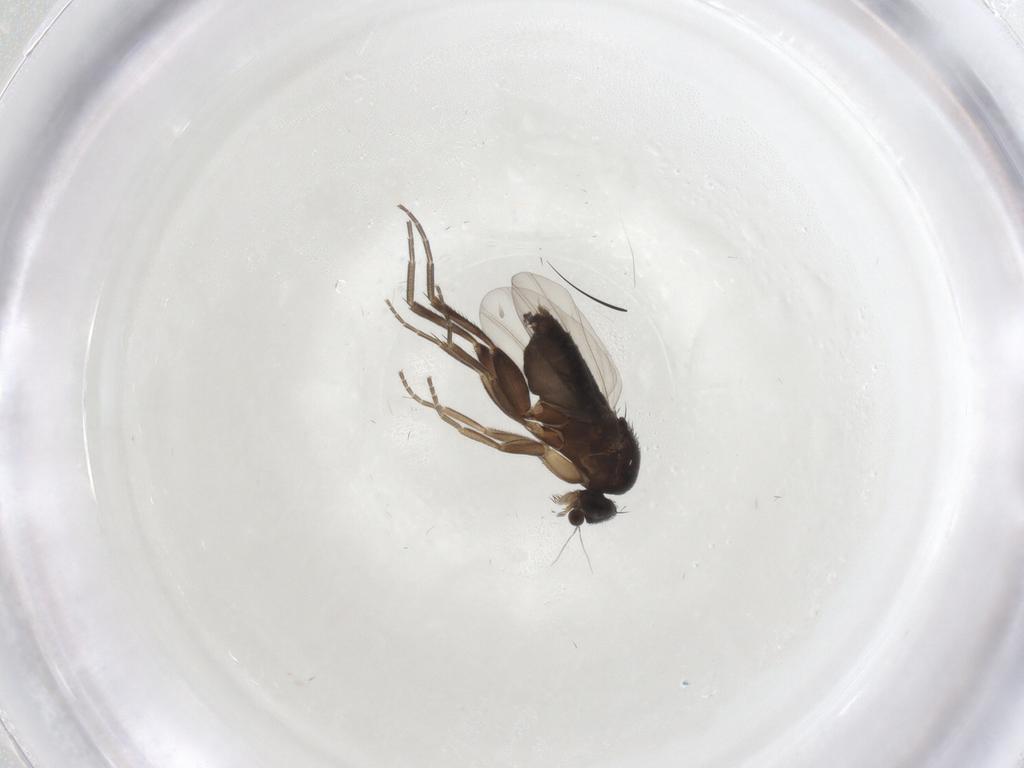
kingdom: Animalia
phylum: Arthropoda
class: Insecta
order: Diptera
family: Phoridae
